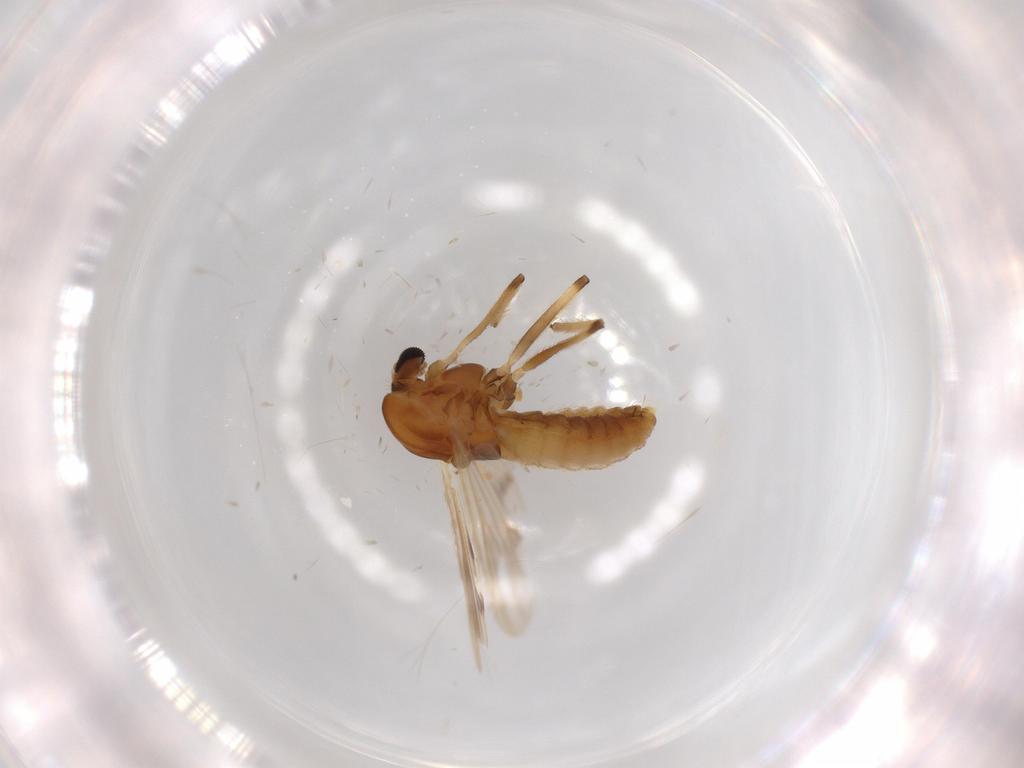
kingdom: Animalia
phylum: Arthropoda
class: Insecta
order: Diptera
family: Chironomidae
